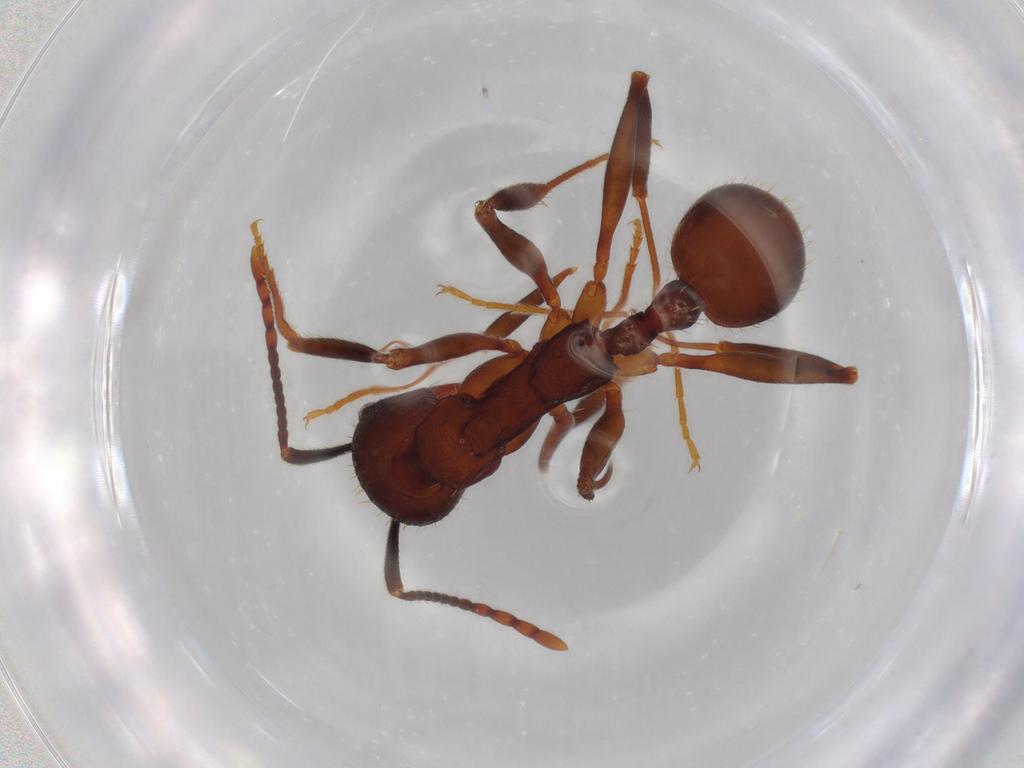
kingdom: Animalia
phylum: Arthropoda
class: Insecta
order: Hymenoptera
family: Formicidae
